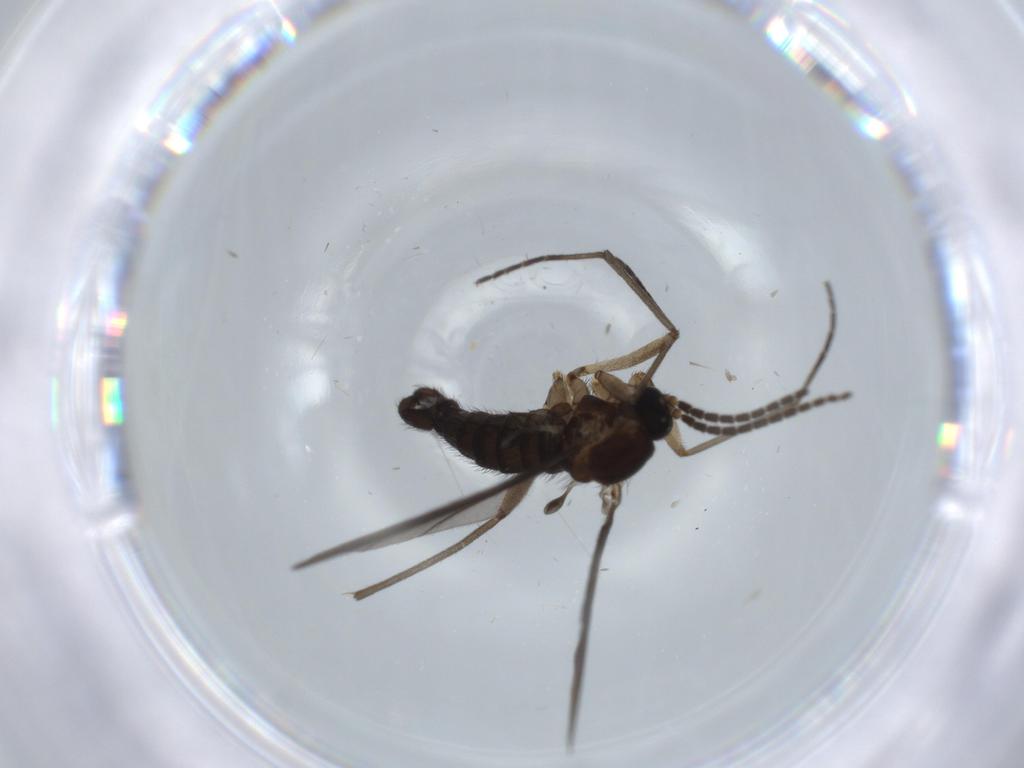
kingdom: Animalia
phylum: Arthropoda
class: Insecta
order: Diptera
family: Sciaridae
